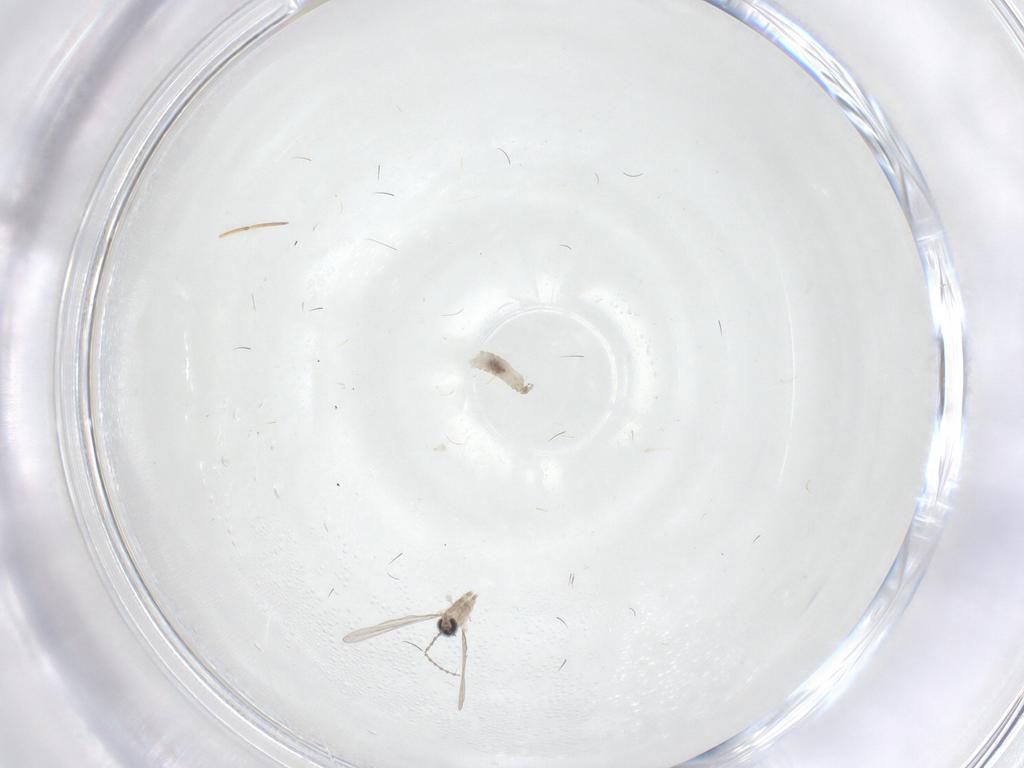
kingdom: Animalia
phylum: Arthropoda
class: Insecta
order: Diptera
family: Cecidomyiidae
